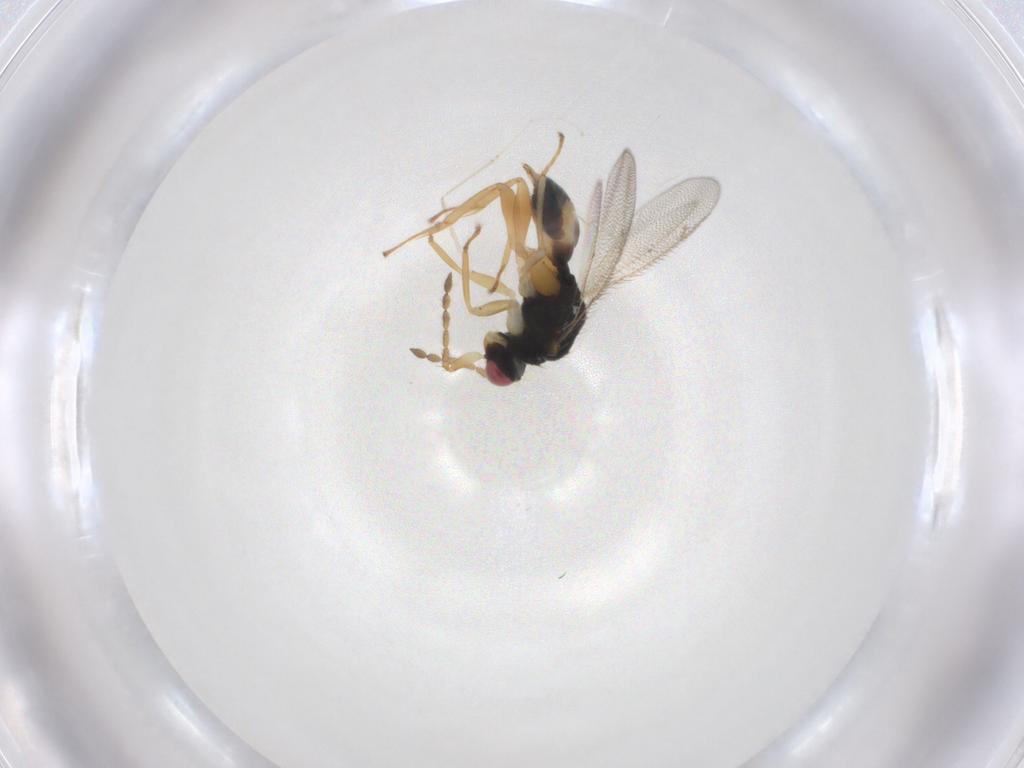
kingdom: Animalia
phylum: Arthropoda
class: Insecta
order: Hymenoptera
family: Eulophidae
